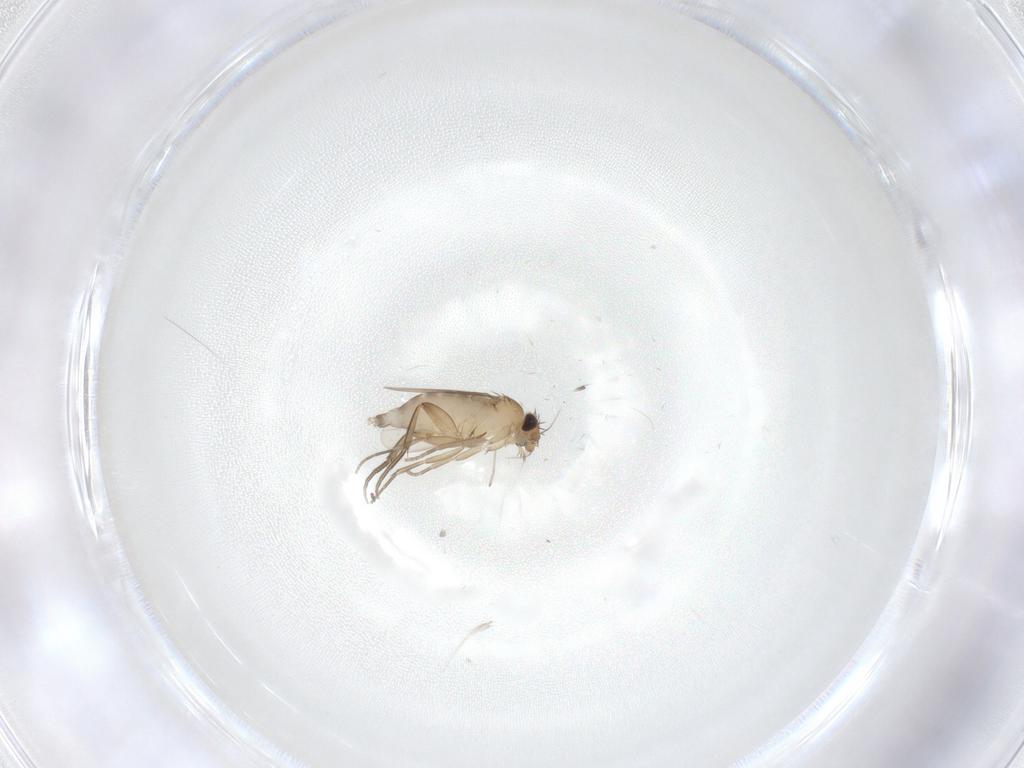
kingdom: Animalia
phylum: Arthropoda
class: Insecta
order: Diptera
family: Phoridae
